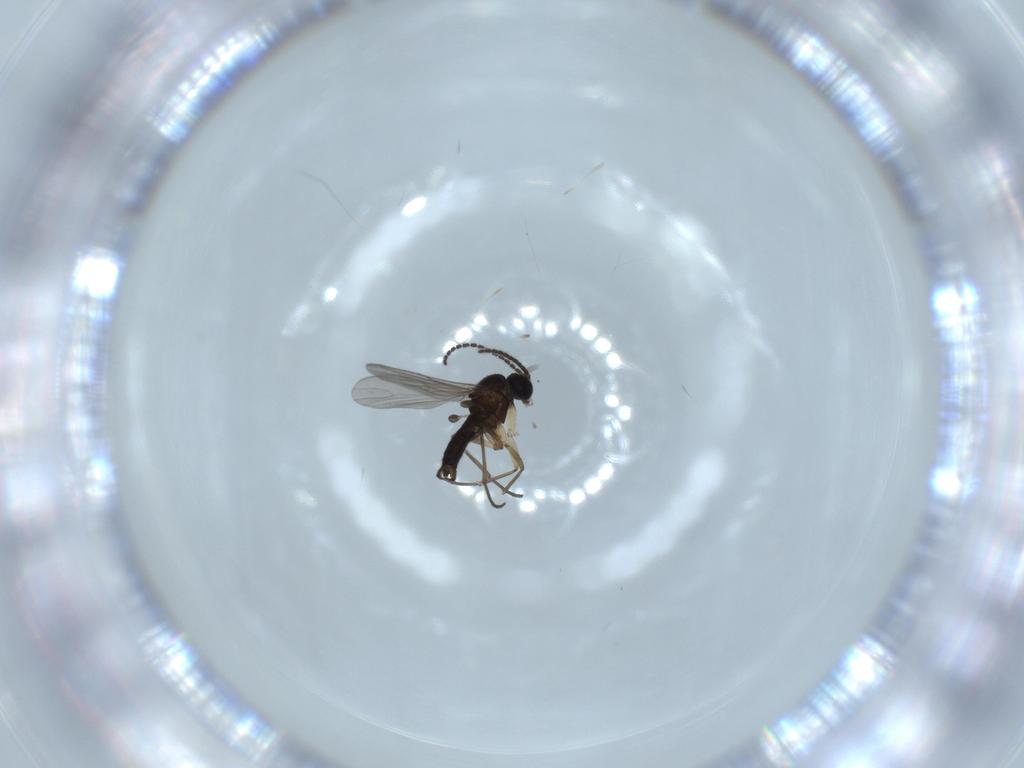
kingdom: Animalia
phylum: Arthropoda
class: Insecta
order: Diptera
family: Sciaridae
